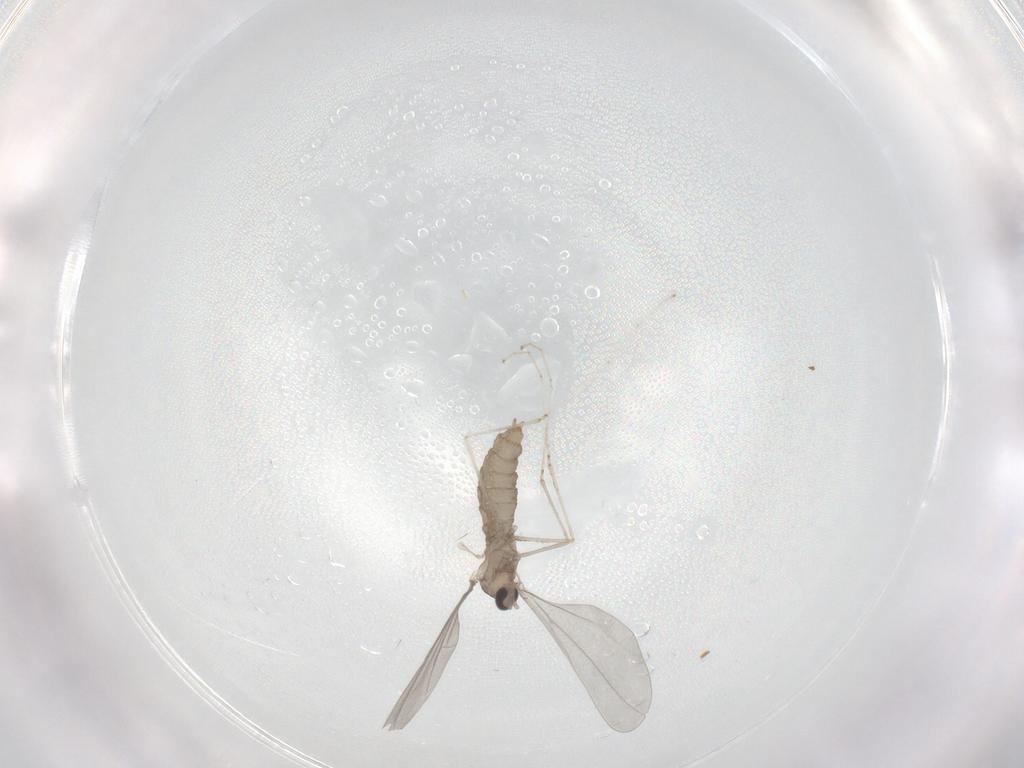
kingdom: Animalia
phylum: Arthropoda
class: Insecta
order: Diptera
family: Cecidomyiidae
